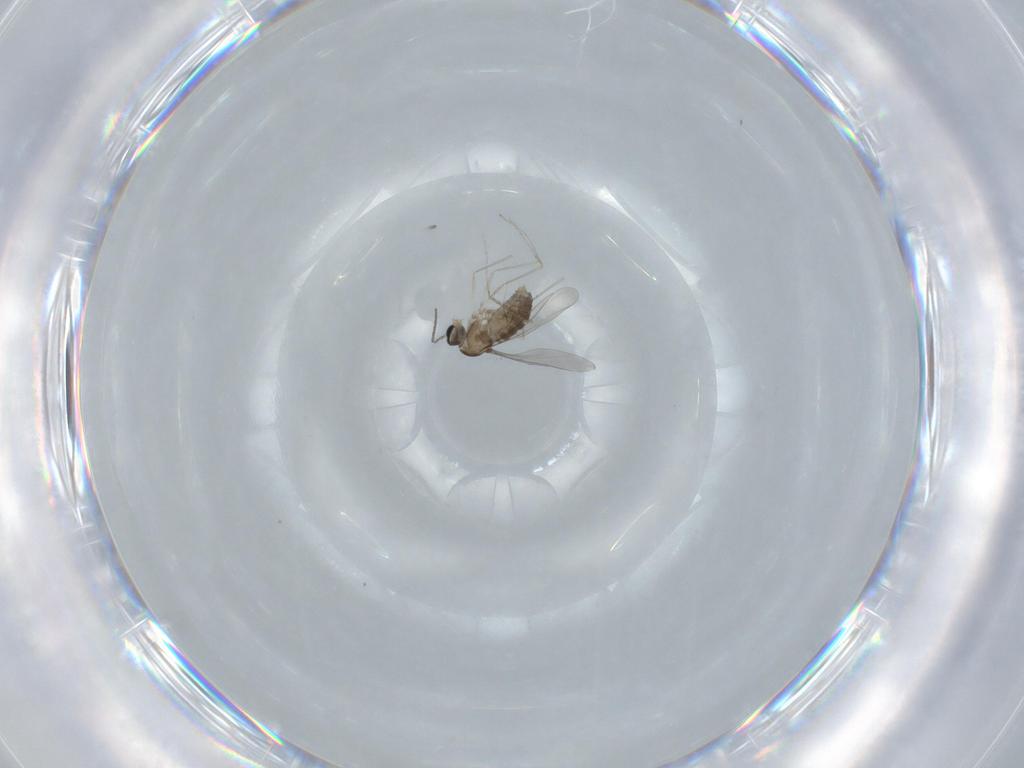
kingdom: Animalia
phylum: Arthropoda
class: Insecta
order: Diptera
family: Cecidomyiidae
